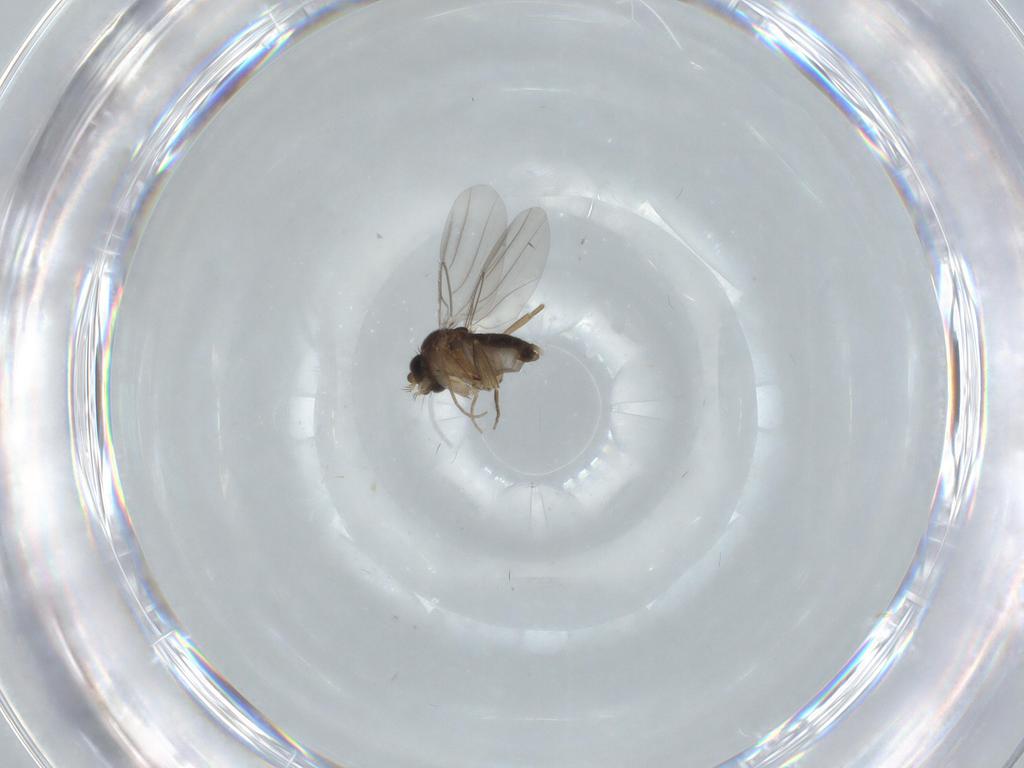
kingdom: Animalia
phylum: Arthropoda
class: Insecta
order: Diptera
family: Phoridae
